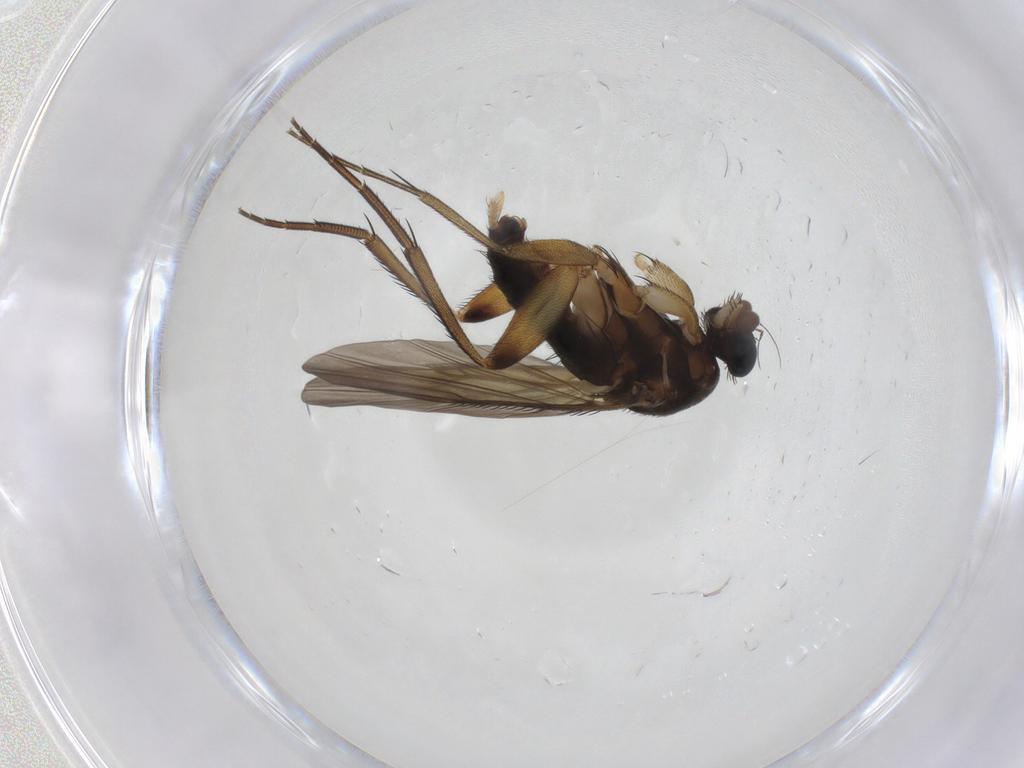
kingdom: Animalia
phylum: Arthropoda
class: Insecta
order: Diptera
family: Phoridae
